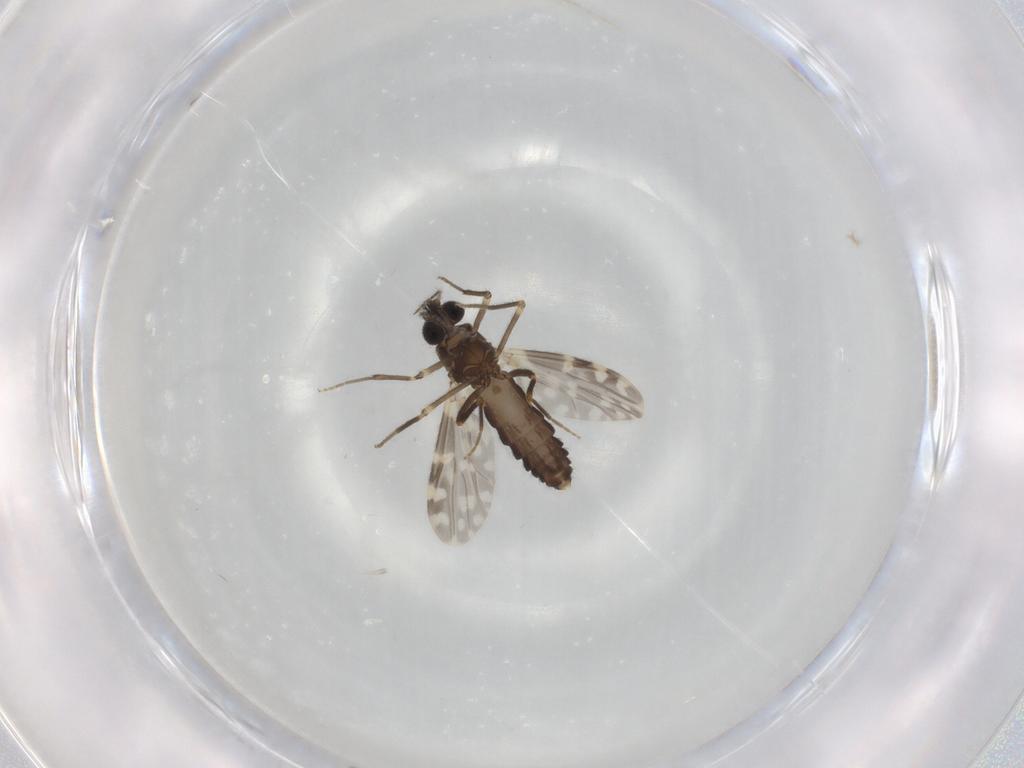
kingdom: Animalia
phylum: Arthropoda
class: Insecta
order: Diptera
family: Ceratopogonidae
